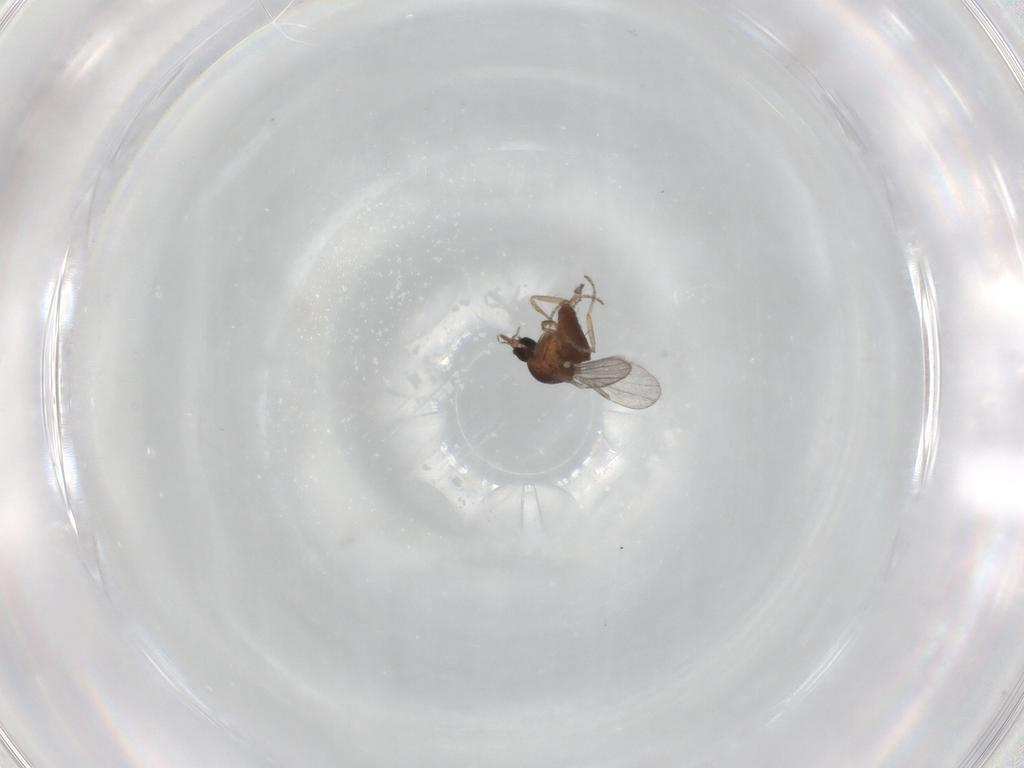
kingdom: Animalia
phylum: Arthropoda
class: Insecta
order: Diptera
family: Ceratopogonidae
